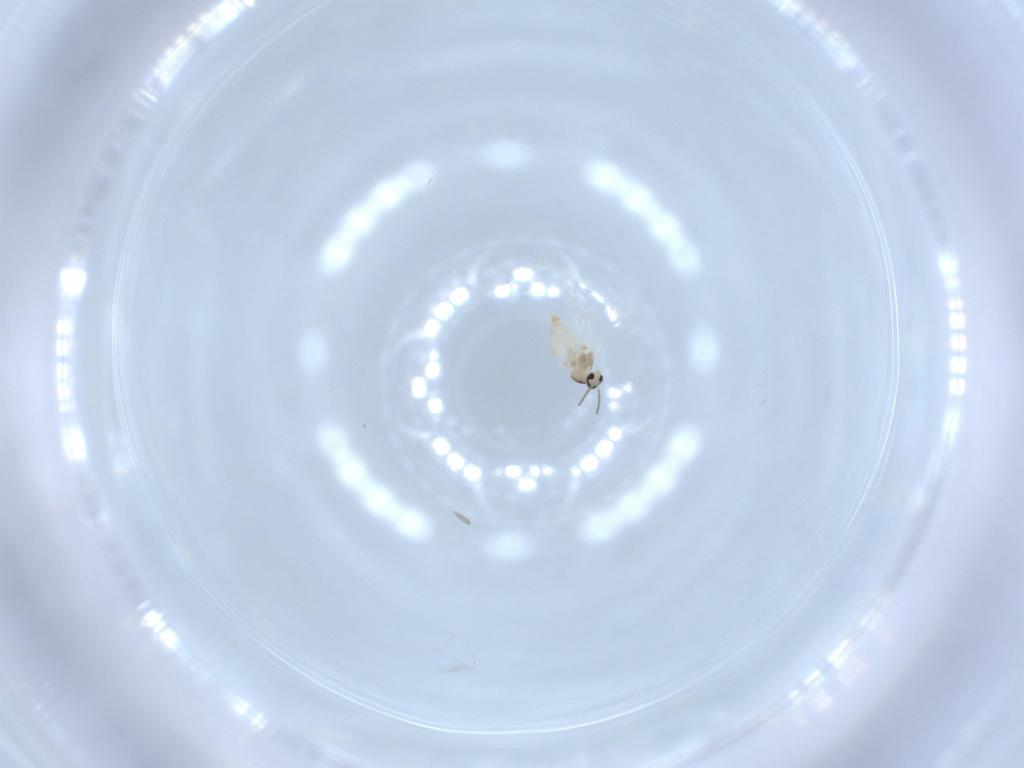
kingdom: Animalia
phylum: Arthropoda
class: Insecta
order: Diptera
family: Cecidomyiidae
